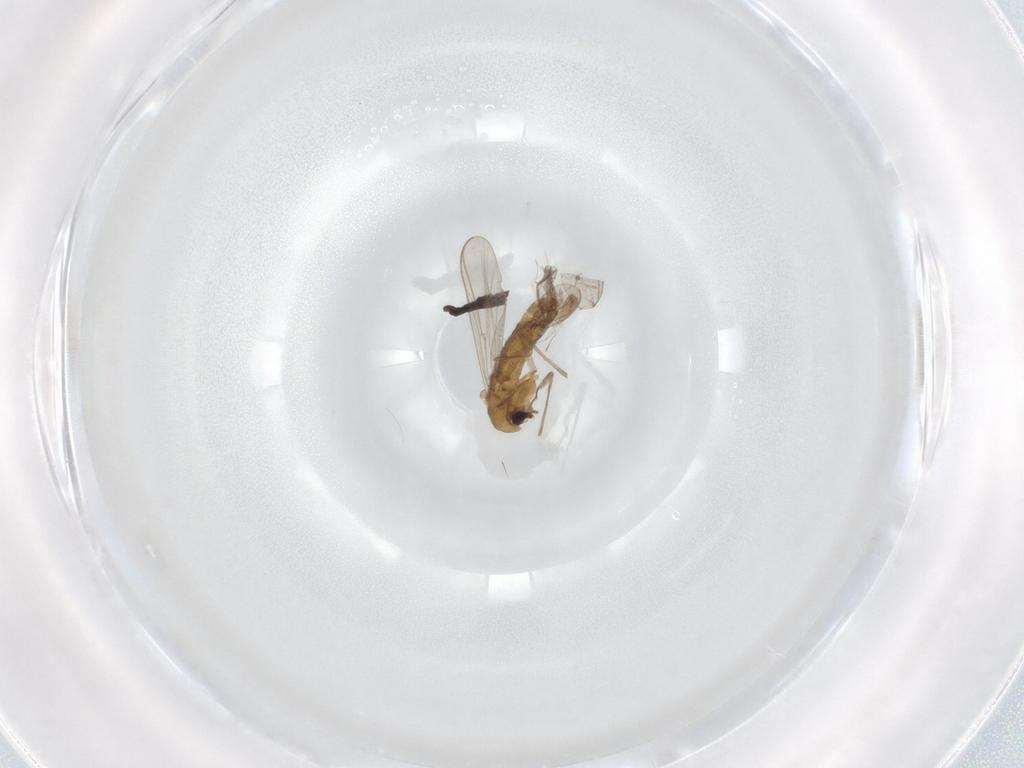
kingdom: Animalia
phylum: Arthropoda
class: Insecta
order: Diptera
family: Chironomidae
